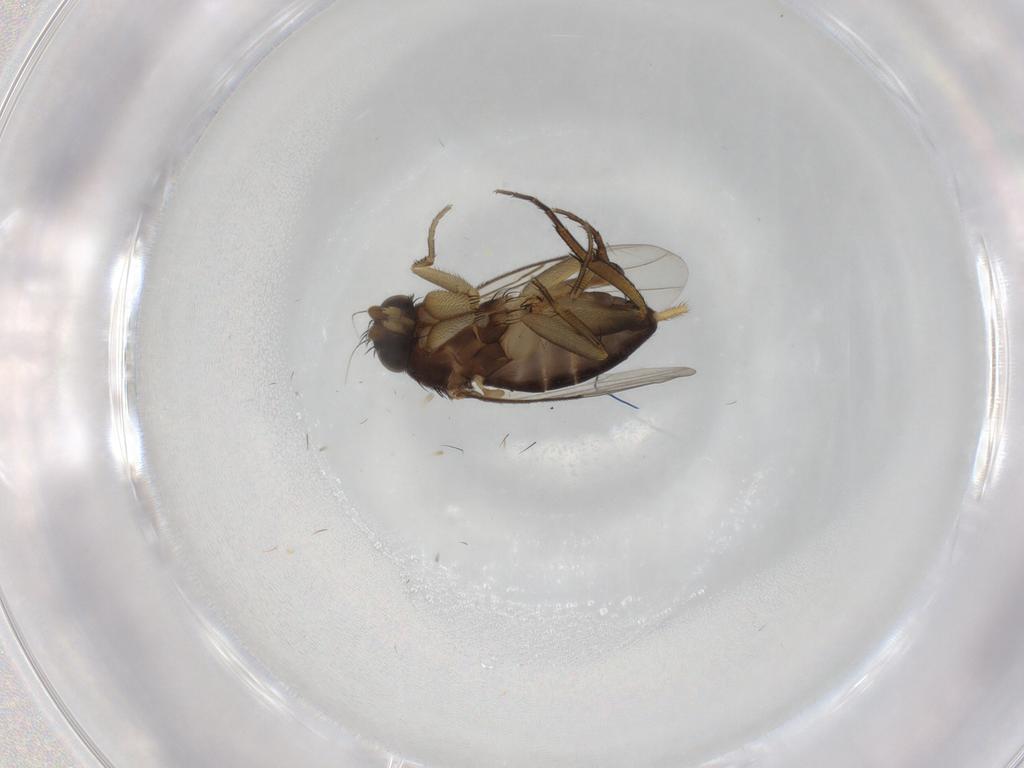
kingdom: Animalia
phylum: Arthropoda
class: Insecta
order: Diptera
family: Phoridae
